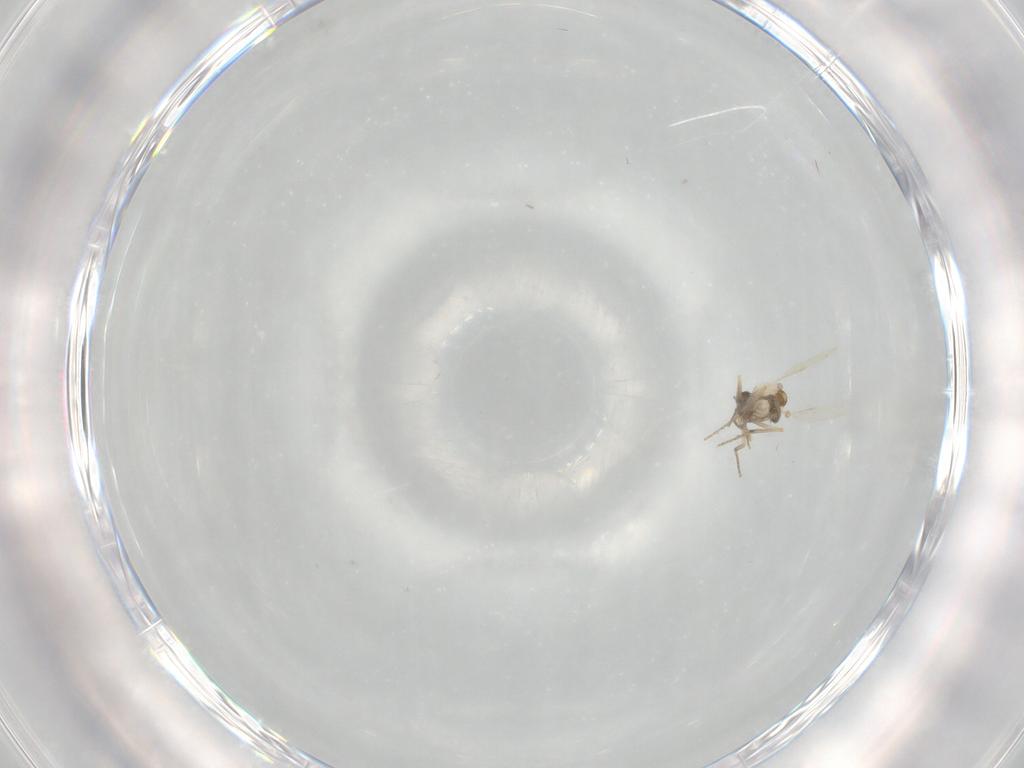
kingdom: Animalia
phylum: Arthropoda
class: Insecta
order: Diptera
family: Ceratopogonidae
